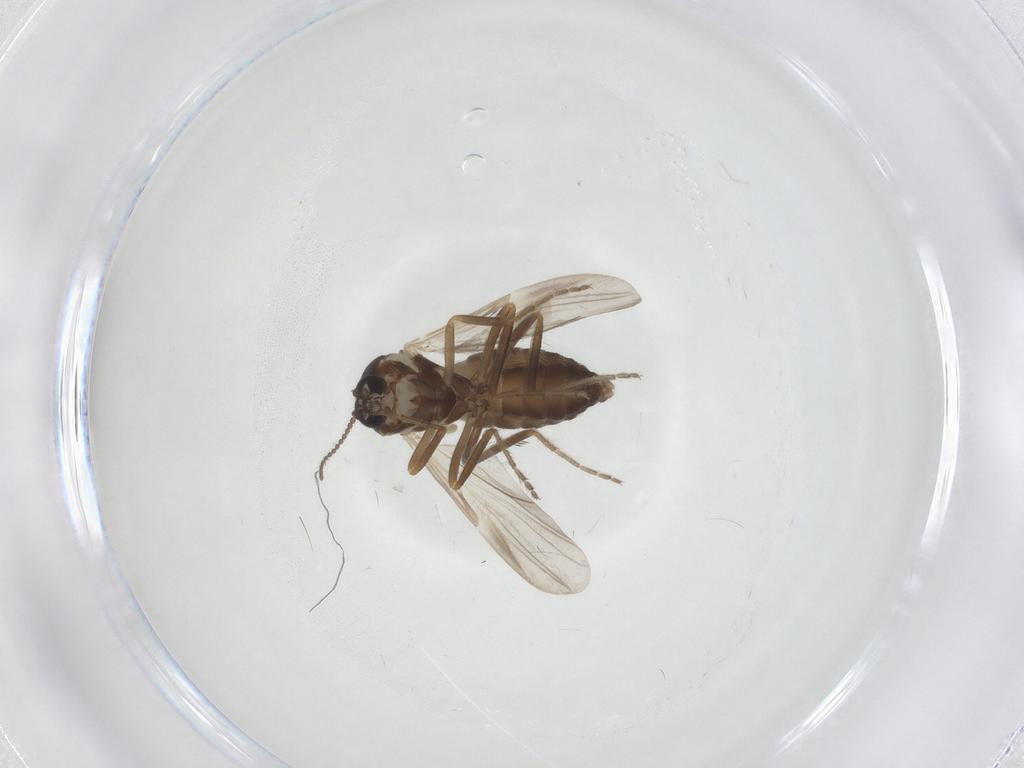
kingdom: Animalia
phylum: Arthropoda
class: Insecta
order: Diptera
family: Ceratopogonidae
